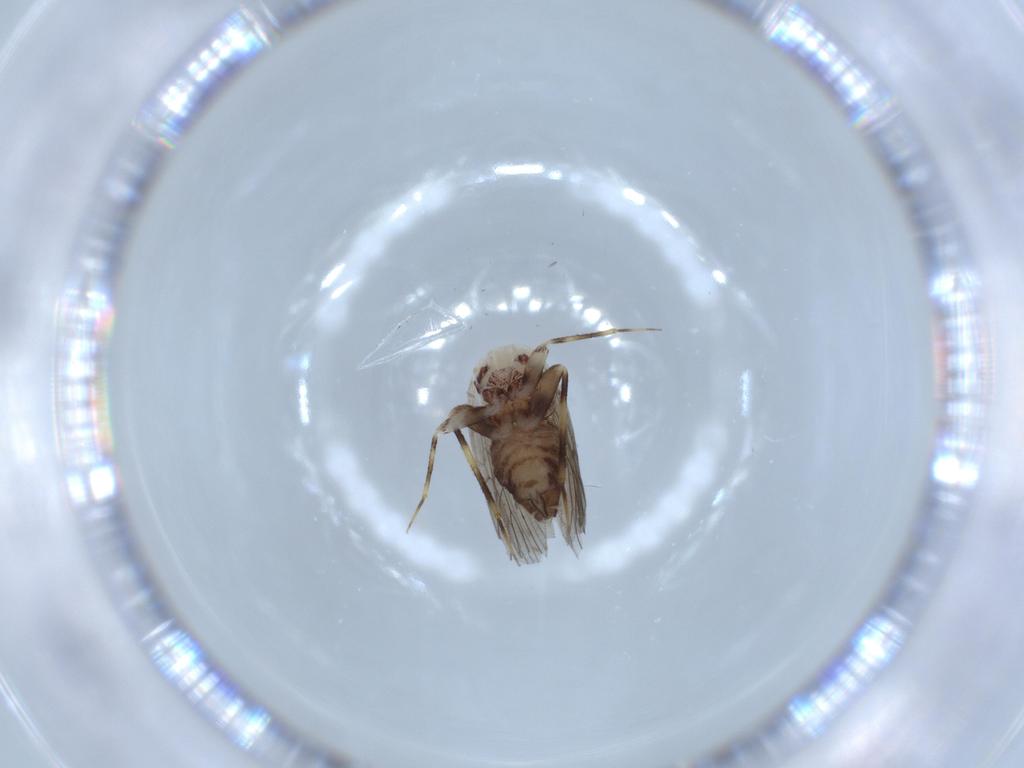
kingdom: Animalia
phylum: Arthropoda
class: Insecta
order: Psocodea
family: Lepidopsocidae
